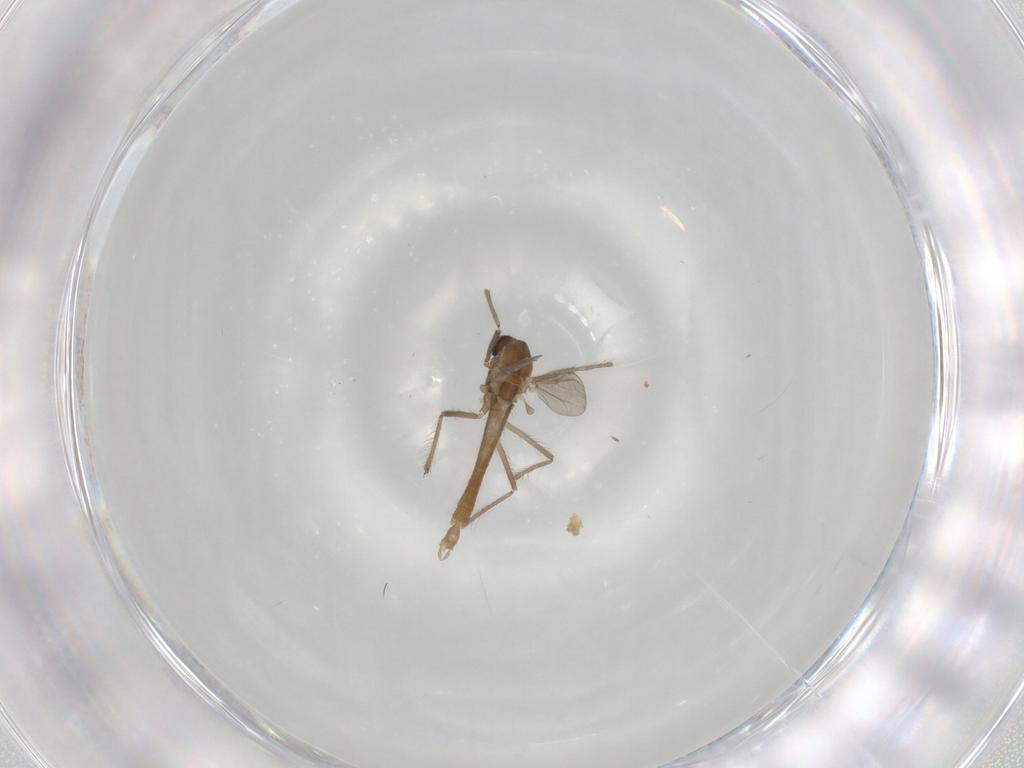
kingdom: Animalia
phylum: Arthropoda
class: Insecta
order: Diptera
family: Chironomidae
